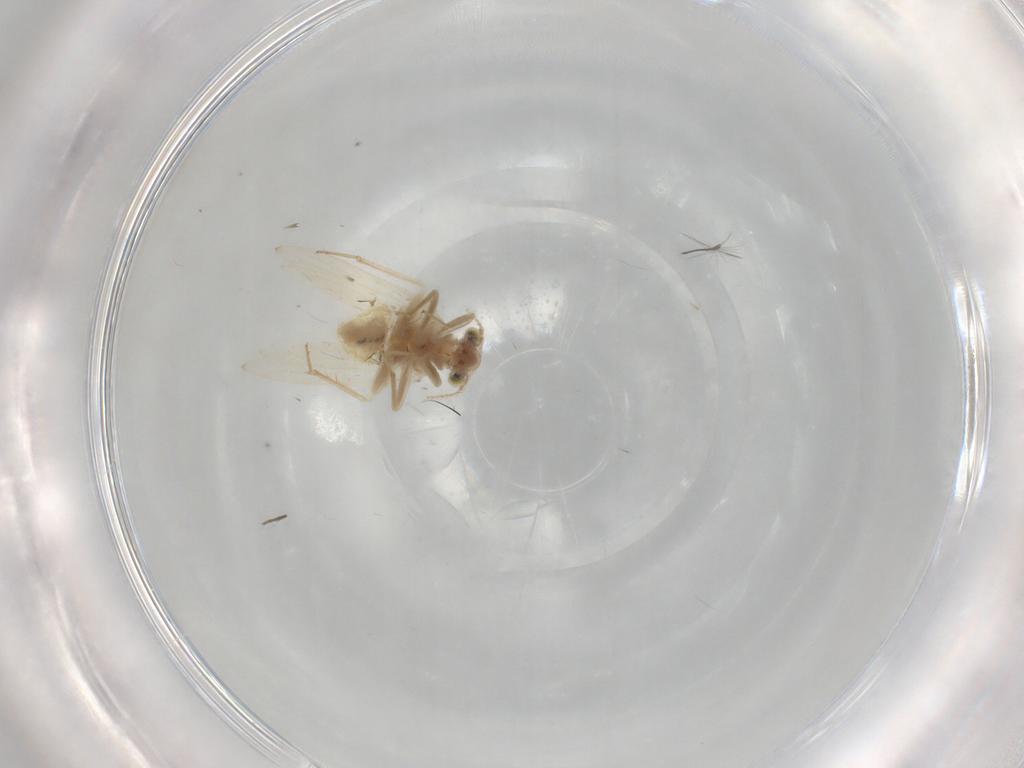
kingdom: Animalia
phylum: Arthropoda
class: Insecta
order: Psocodea
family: Lepidopsocidae
